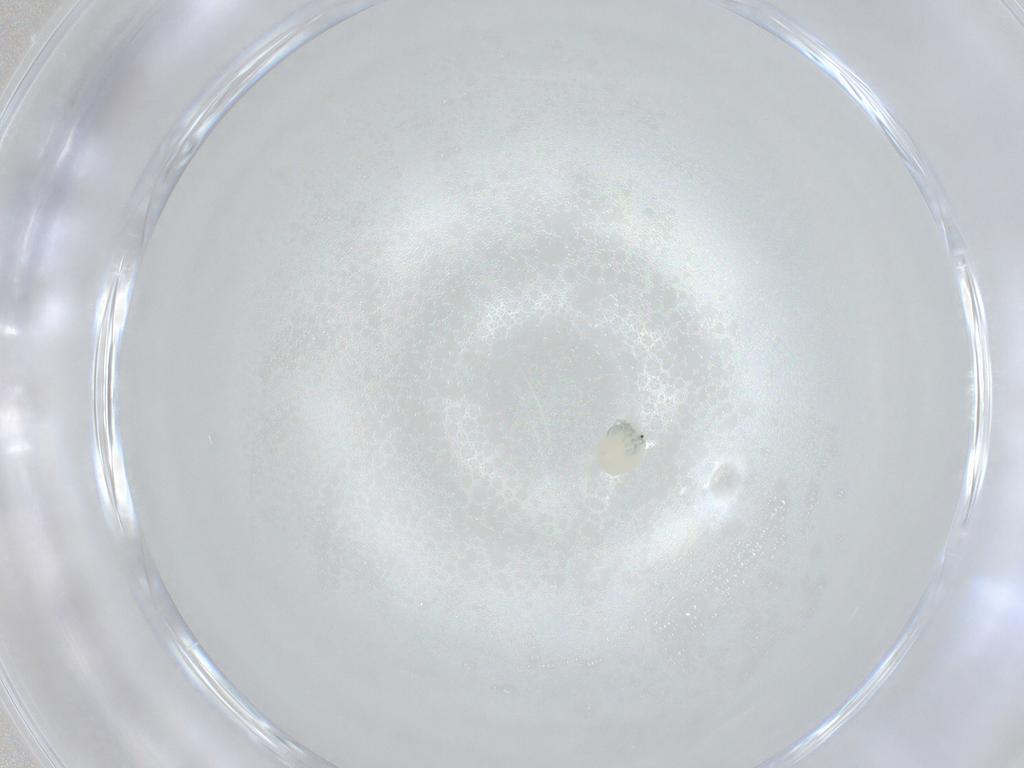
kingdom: Animalia
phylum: Arthropoda
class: Arachnida
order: Trombidiformes
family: Arrenuridae
